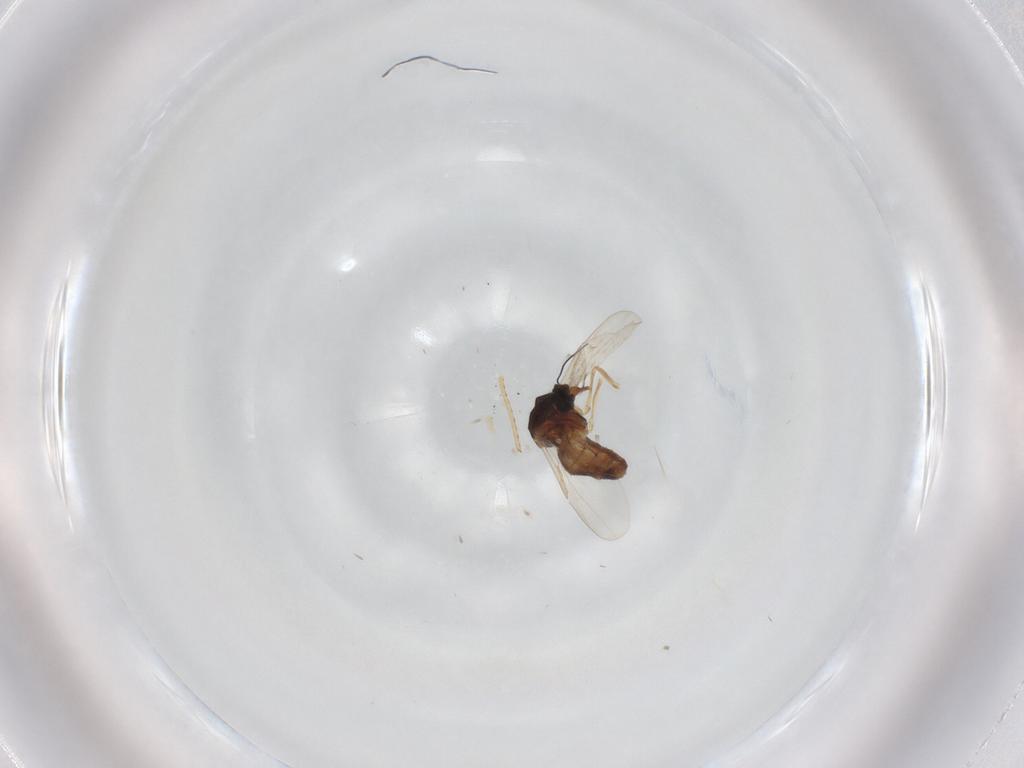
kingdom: Animalia
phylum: Arthropoda
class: Insecta
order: Diptera
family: Ceratopogonidae
